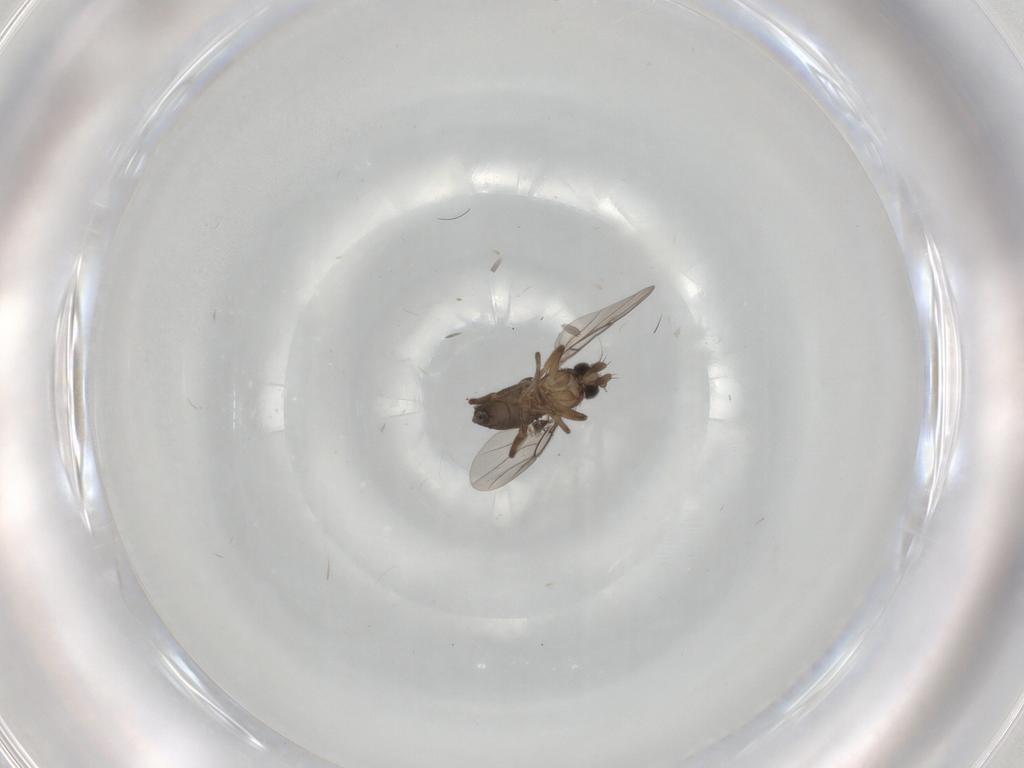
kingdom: Animalia
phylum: Arthropoda
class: Insecta
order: Diptera
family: Phoridae
